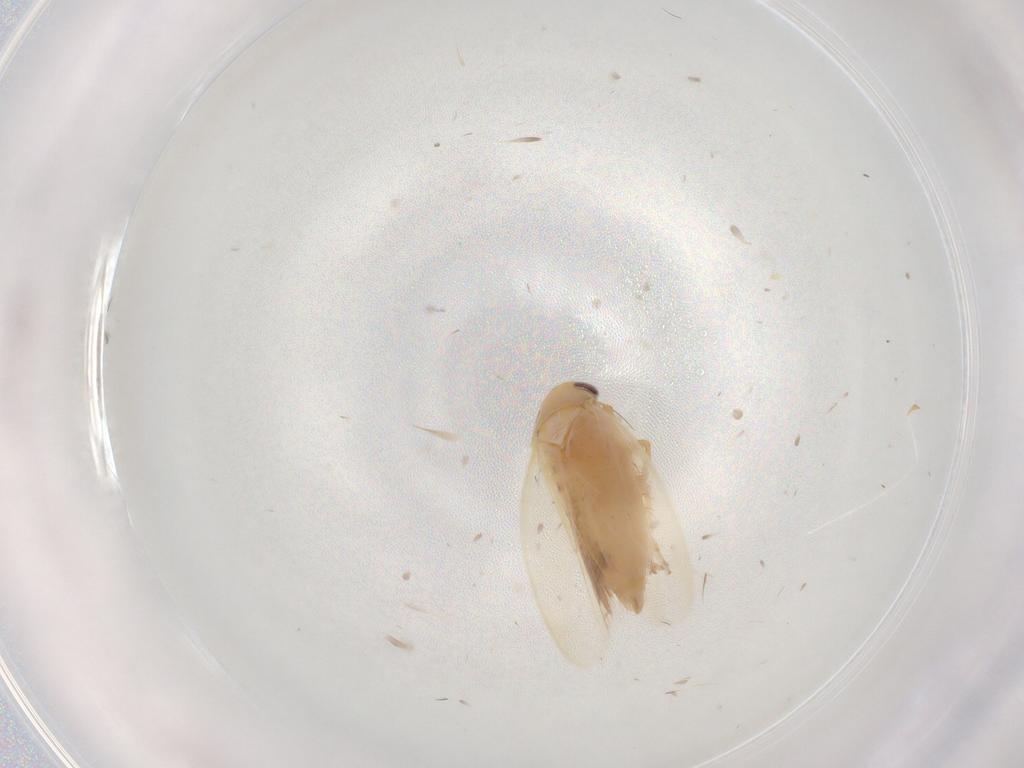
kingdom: Animalia
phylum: Arthropoda
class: Insecta
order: Hemiptera
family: Cicadellidae
